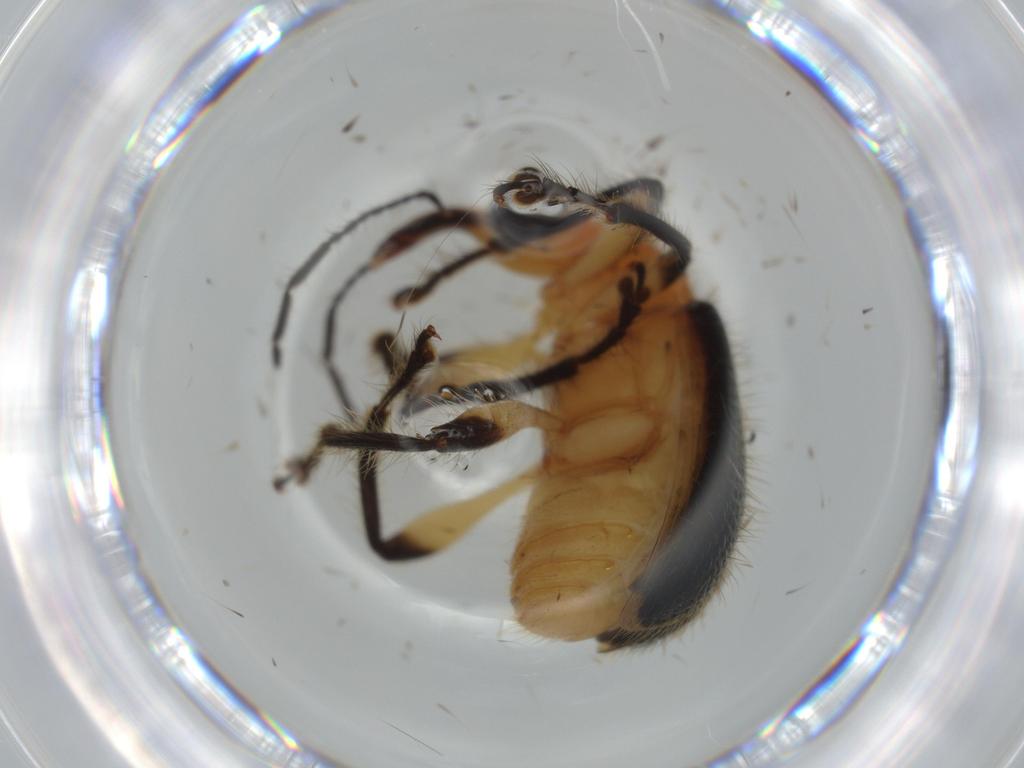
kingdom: Animalia
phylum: Arthropoda
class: Insecta
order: Coleoptera
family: Attelabidae
